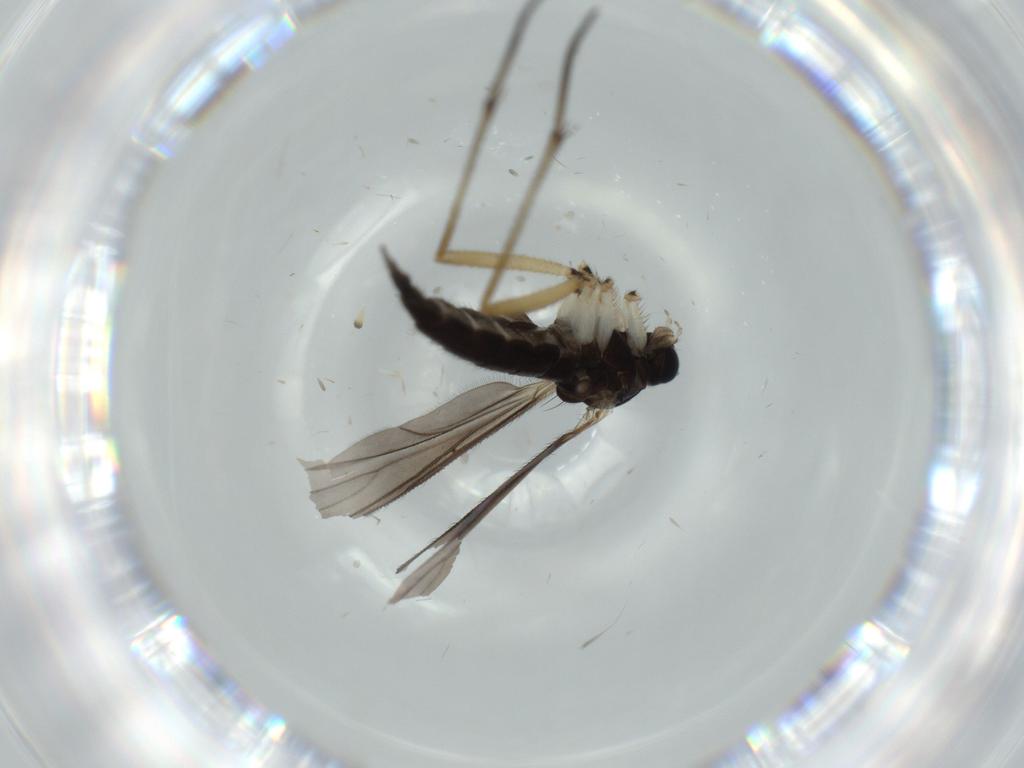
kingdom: Animalia
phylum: Arthropoda
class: Insecta
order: Diptera
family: Sciaridae
